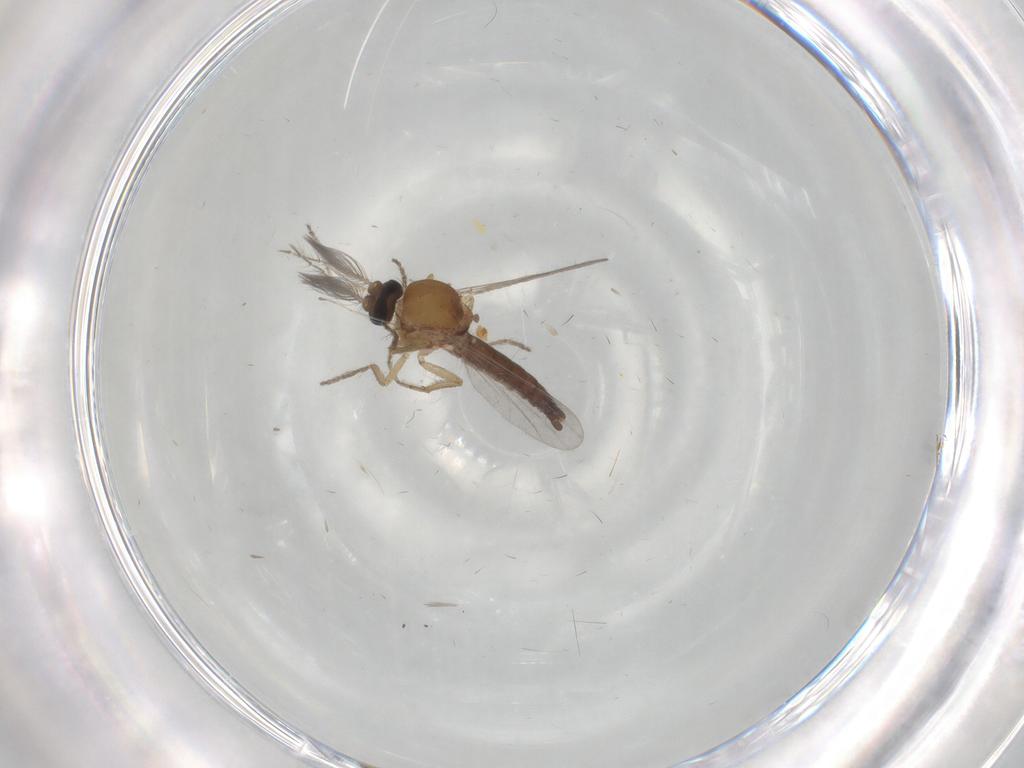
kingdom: Animalia
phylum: Arthropoda
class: Insecta
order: Diptera
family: Ceratopogonidae
